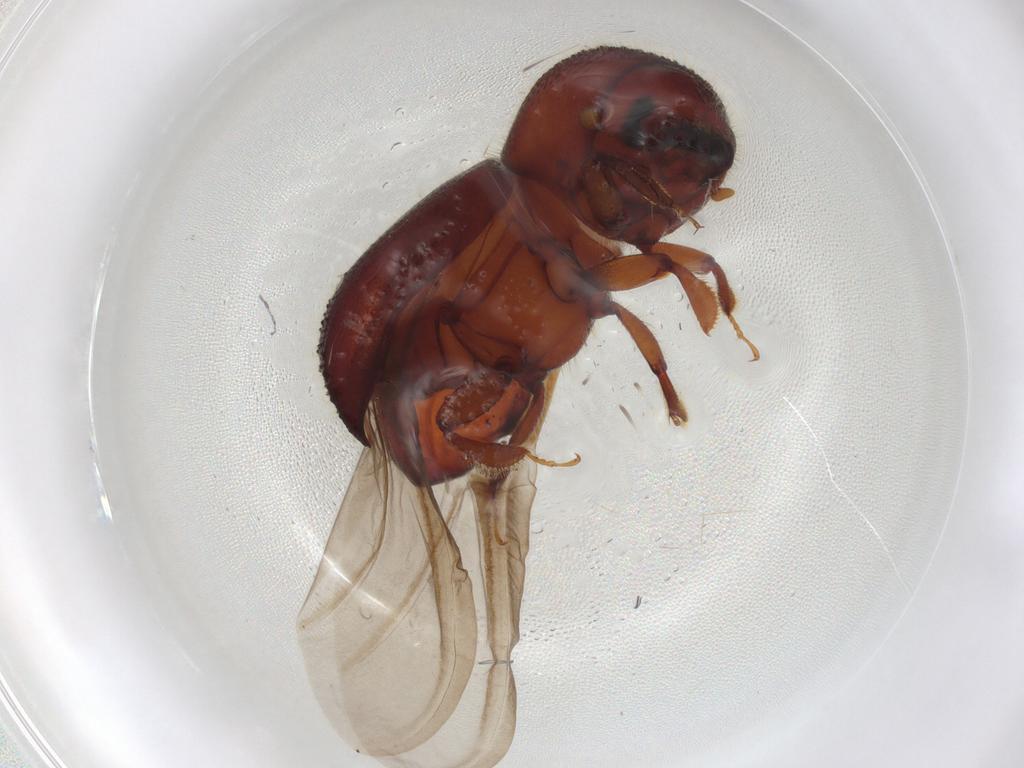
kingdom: Animalia
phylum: Arthropoda
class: Insecta
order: Coleoptera
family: Curculionidae
